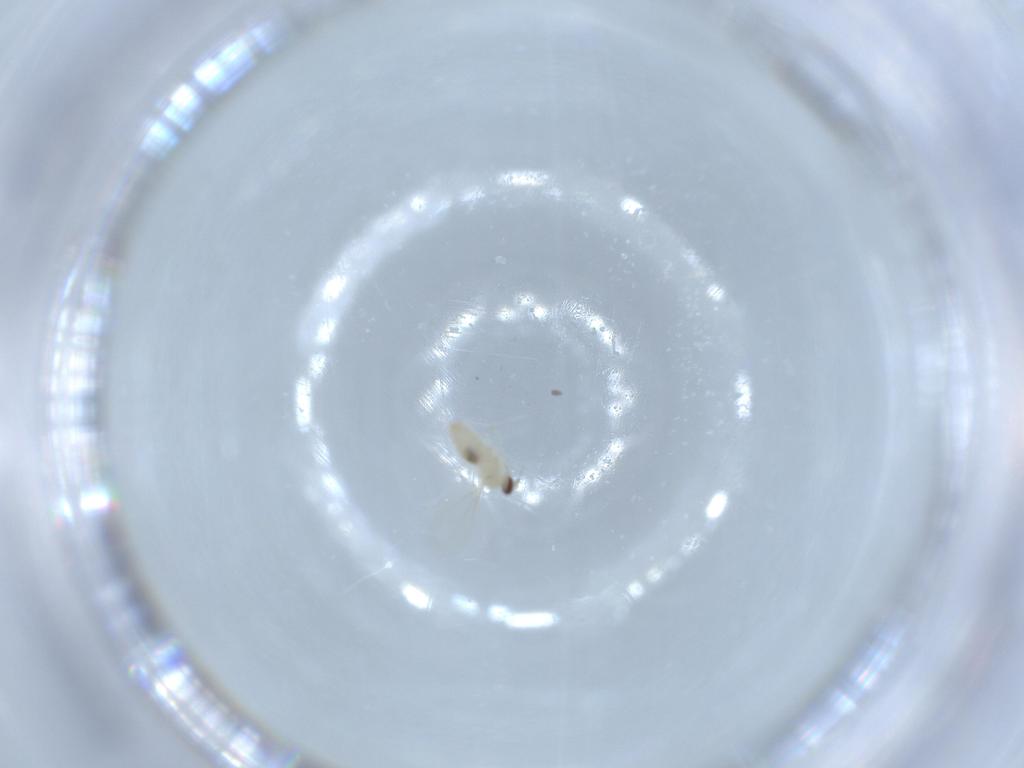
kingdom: Animalia
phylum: Arthropoda
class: Insecta
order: Diptera
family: Cecidomyiidae
